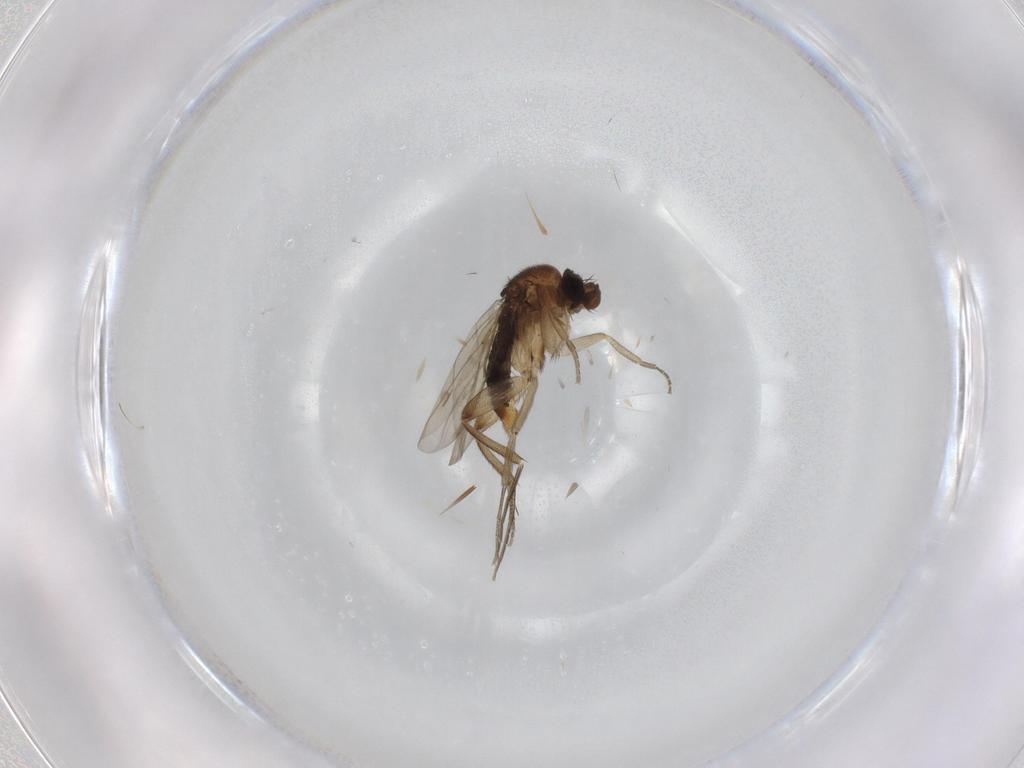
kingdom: Animalia
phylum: Arthropoda
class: Insecta
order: Diptera
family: Phoridae
